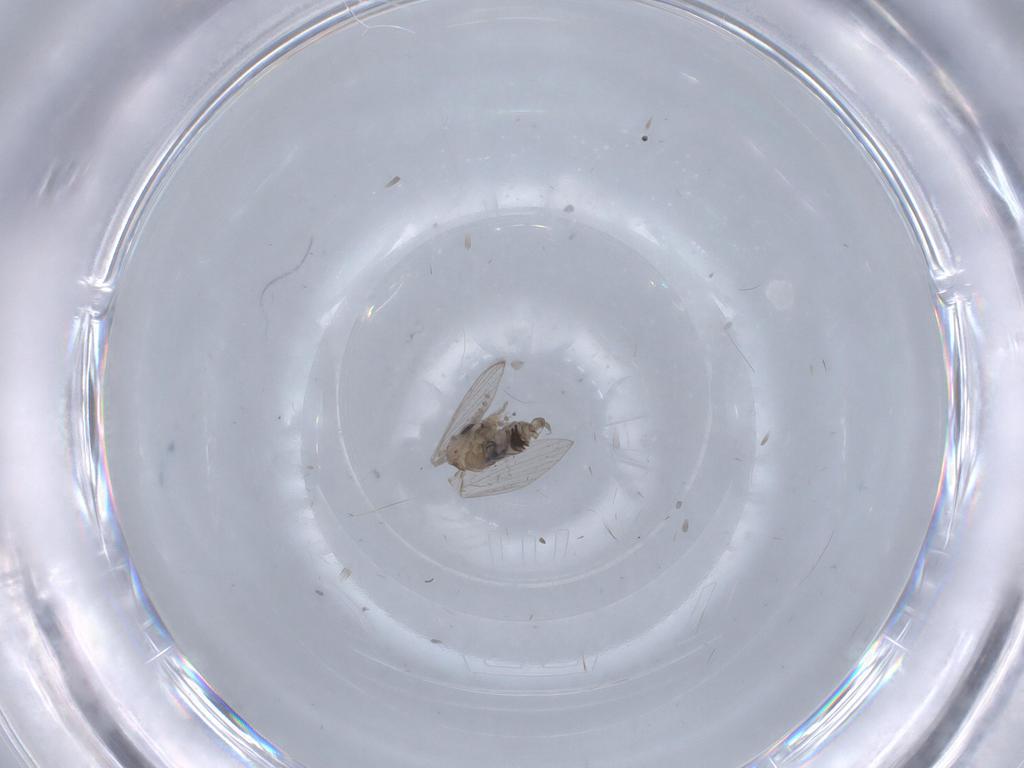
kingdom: Animalia
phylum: Arthropoda
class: Insecta
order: Diptera
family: Psychodidae
